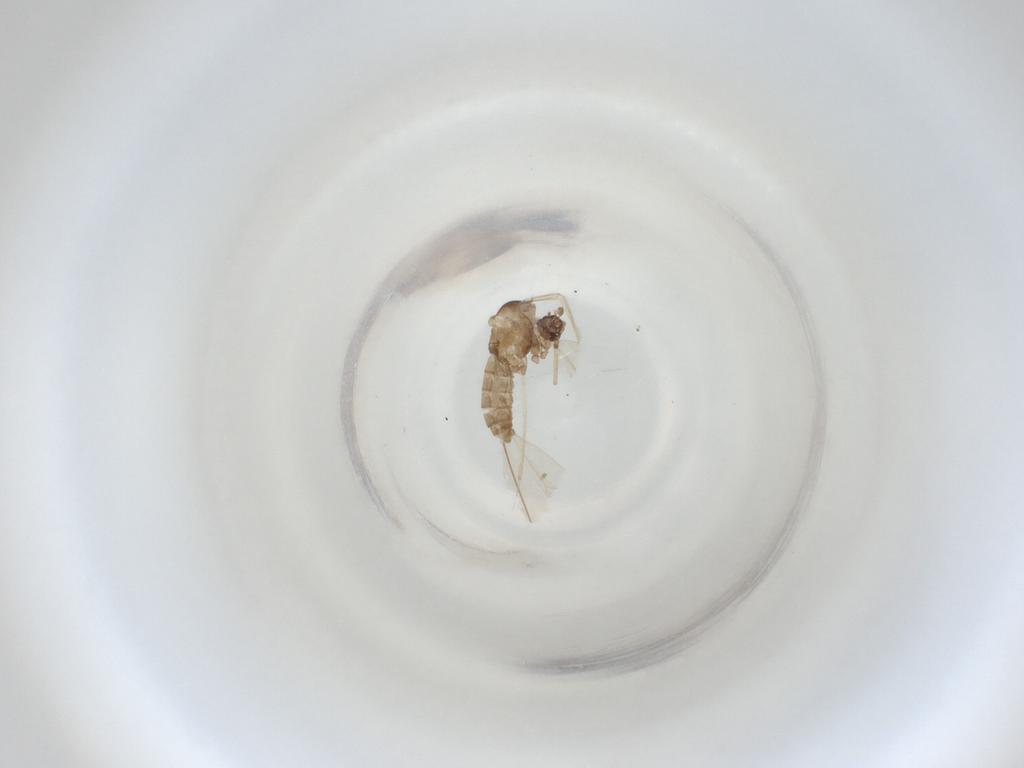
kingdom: Animalia
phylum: Arthropoda
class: Insecta
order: Diptera
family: Cecidomyiidae
